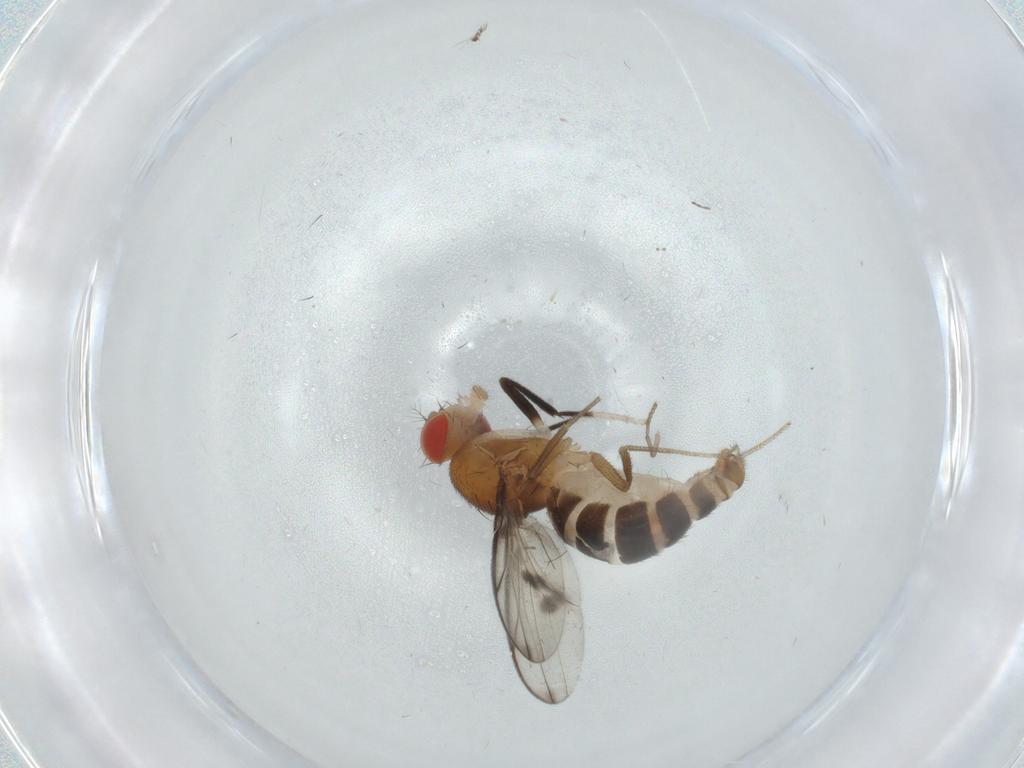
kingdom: Animalia
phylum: Arthropoda
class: Insecta
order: Diptera
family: Drosophilidae
